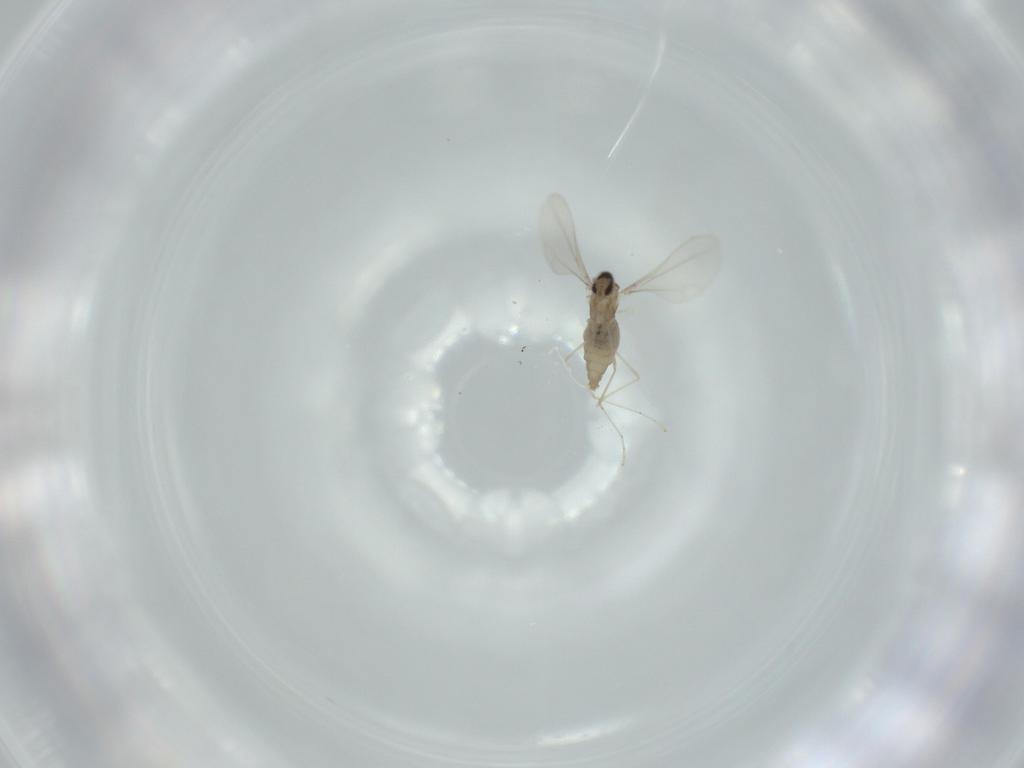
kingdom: Animalia
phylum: Arthropoda
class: Insecta
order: Diptera
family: Cecidomyiidae
